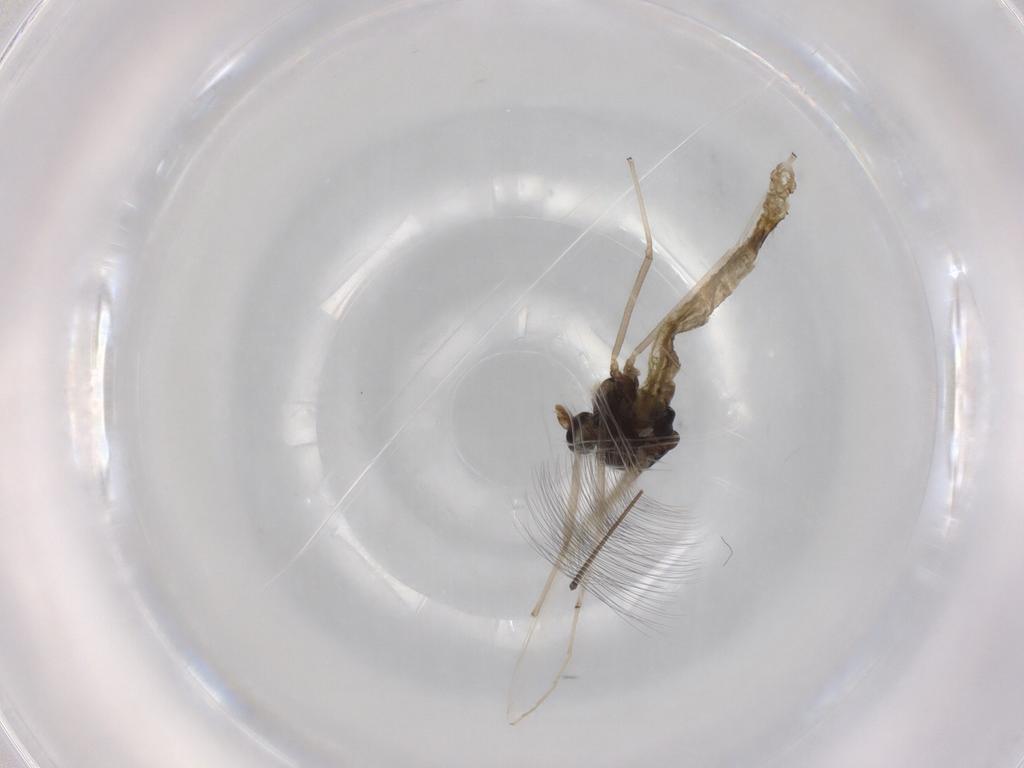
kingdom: Animalia
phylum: Arthropoda
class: Insecta
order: Diptera
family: Chironomidae
